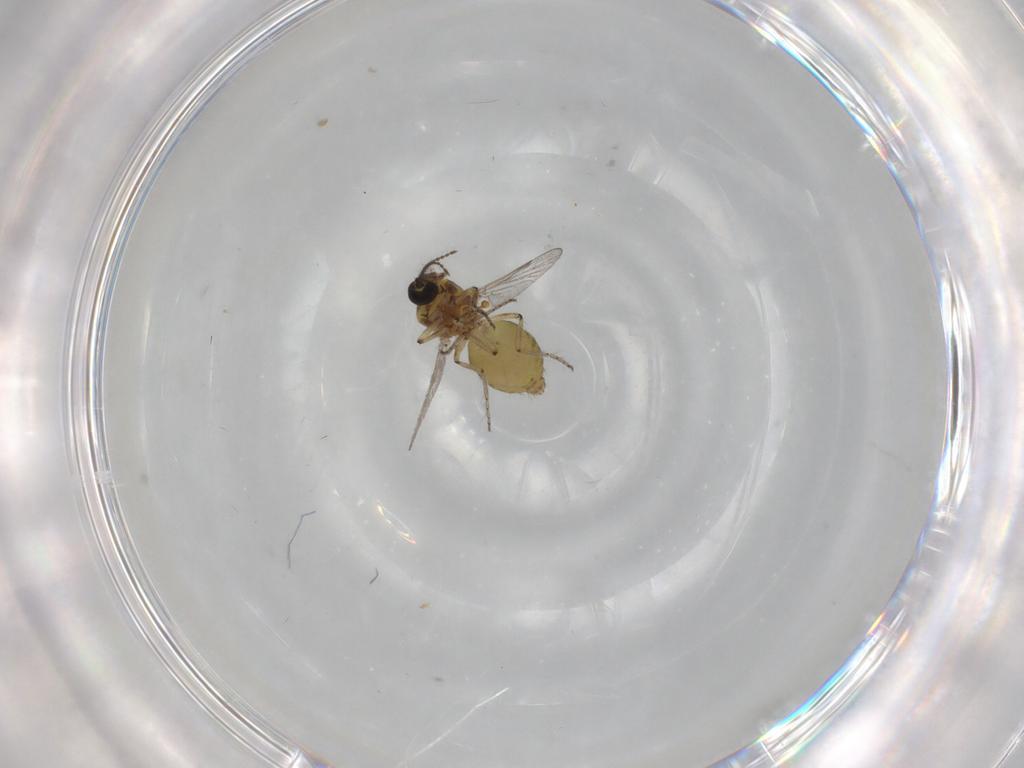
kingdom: Animalia
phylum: Arthropoda
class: Insecta
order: Diptera
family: Ceratopogonidae
